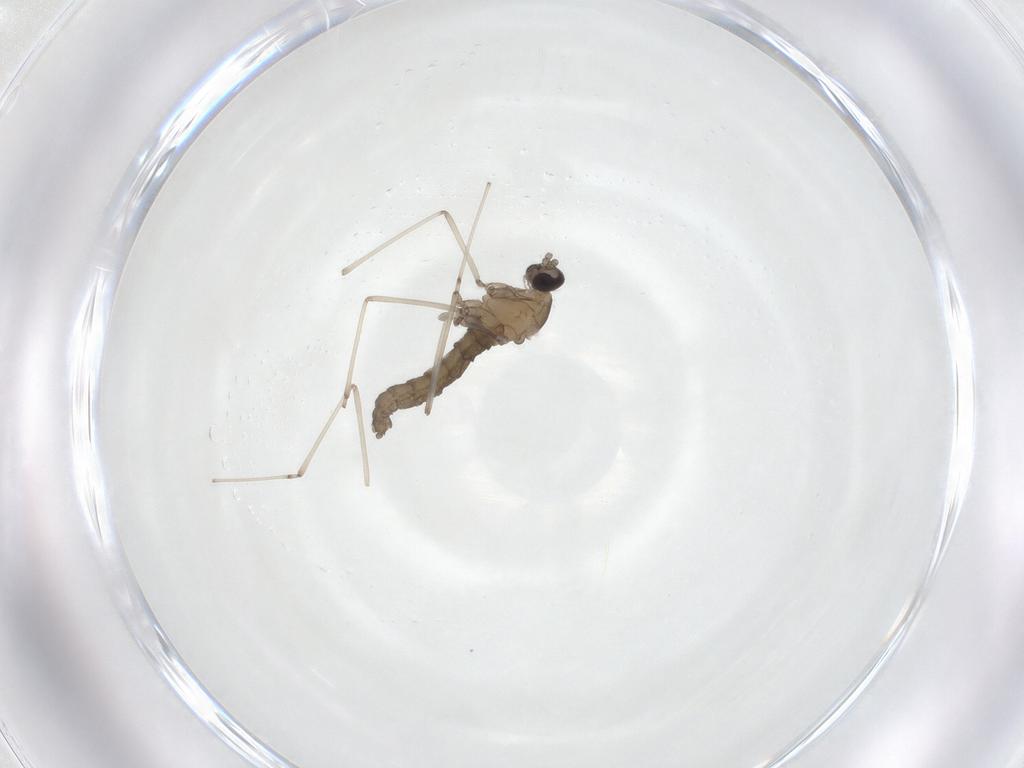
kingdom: Animalia
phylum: Arthropoda
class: Insecta
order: Diptera
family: Cecidomyiidae
